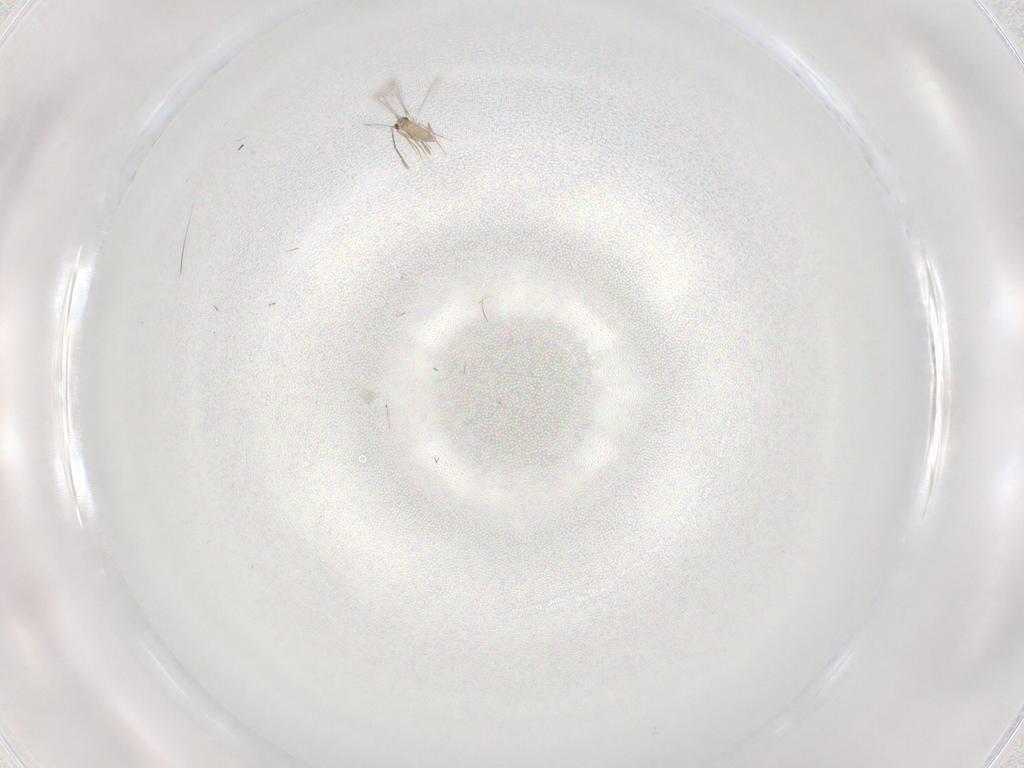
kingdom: Animalia
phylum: Arthropoda
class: Insecta
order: Hymenoptera
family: Mymaridae
